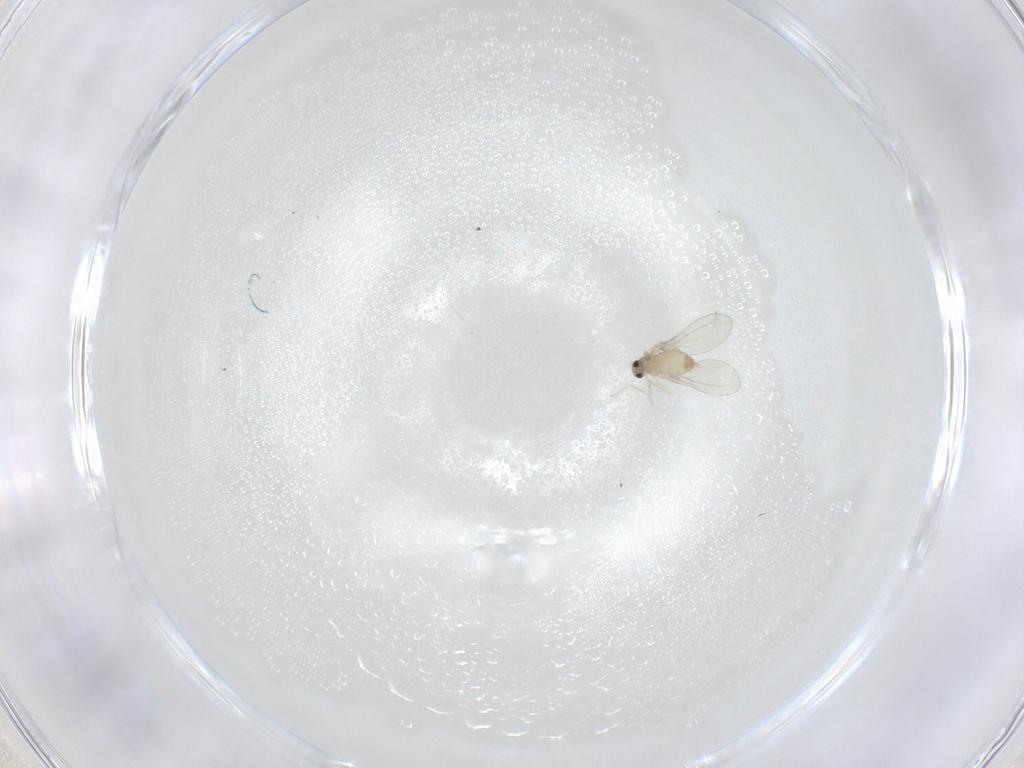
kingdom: Animalia
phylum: Arthropoda
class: Insecta
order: Diptera
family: Cecidomyiidae
